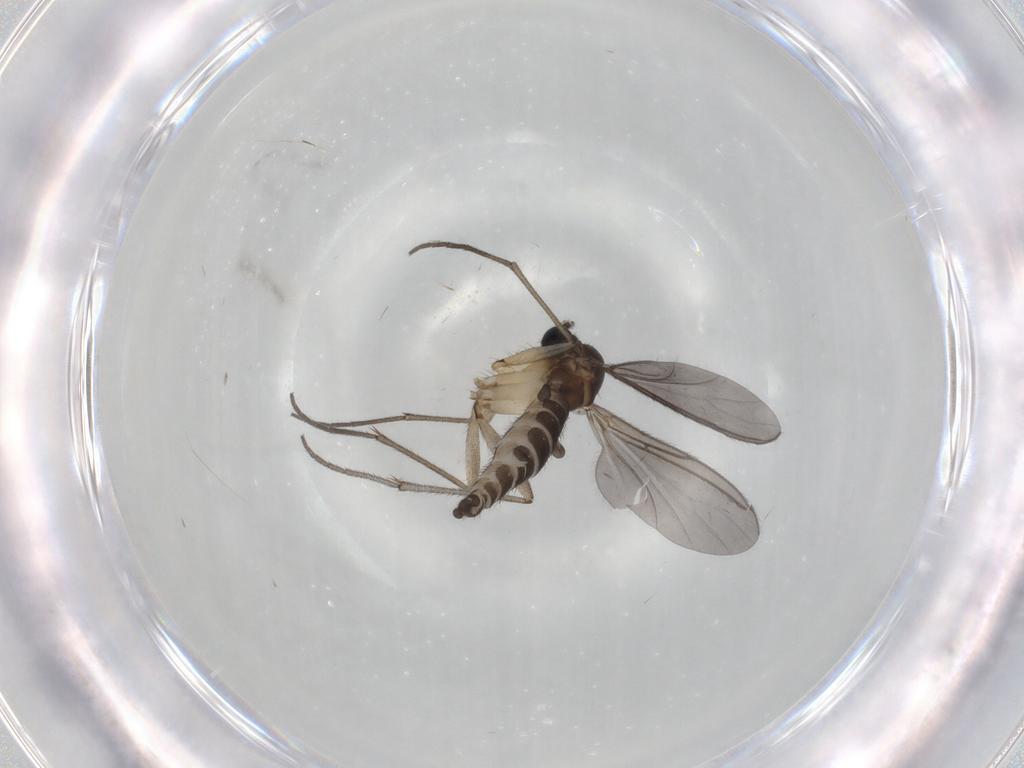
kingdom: Animalia
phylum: Arthropoda
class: Insecta
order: Diptera
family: Sciaridae
